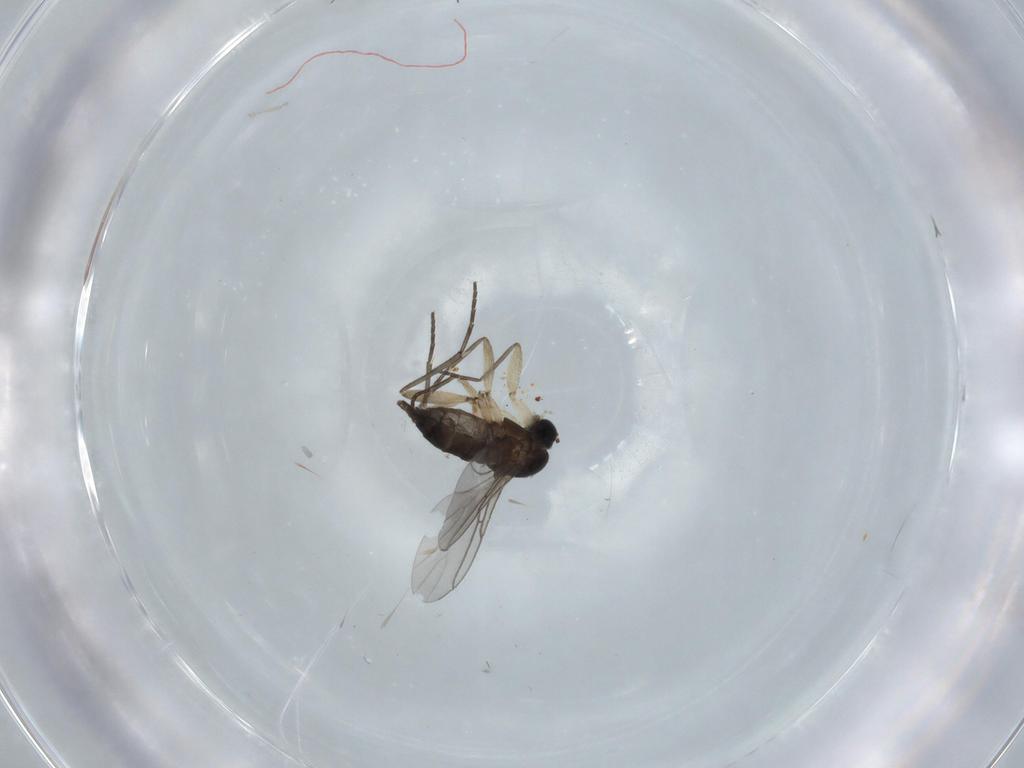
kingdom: Animalia
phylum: Arthropoda
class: Insecta
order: Diptera
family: Sciaridae
